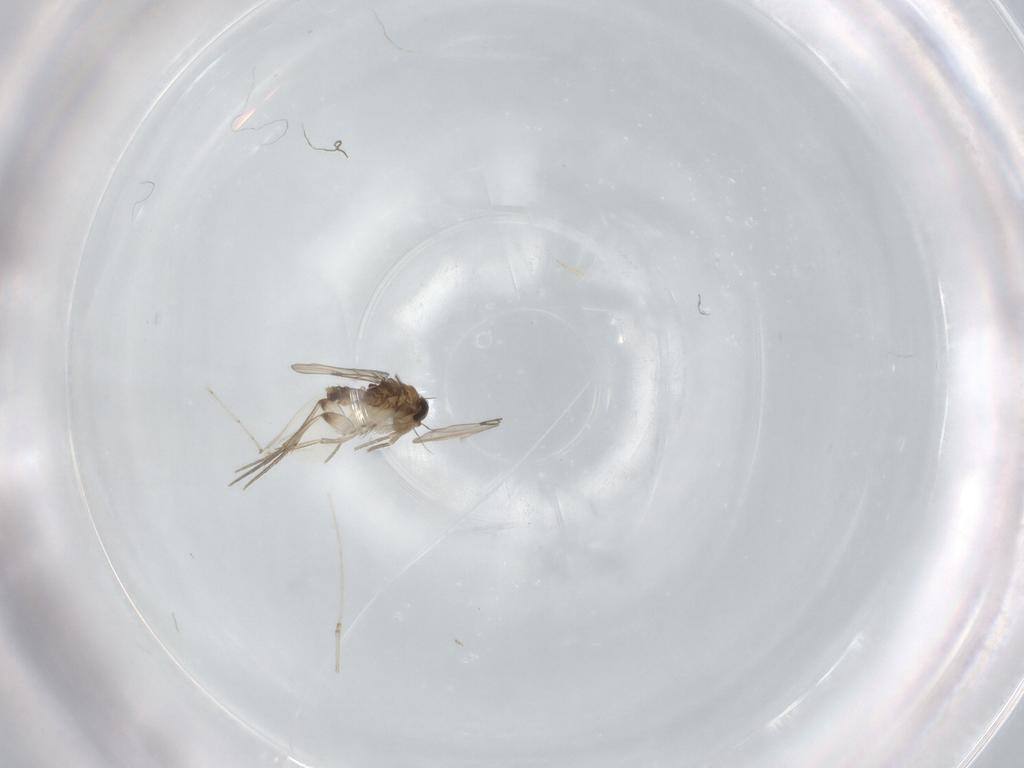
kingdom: Animalia
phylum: Arthropoda
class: Insecta
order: Diptera
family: Phoridae
